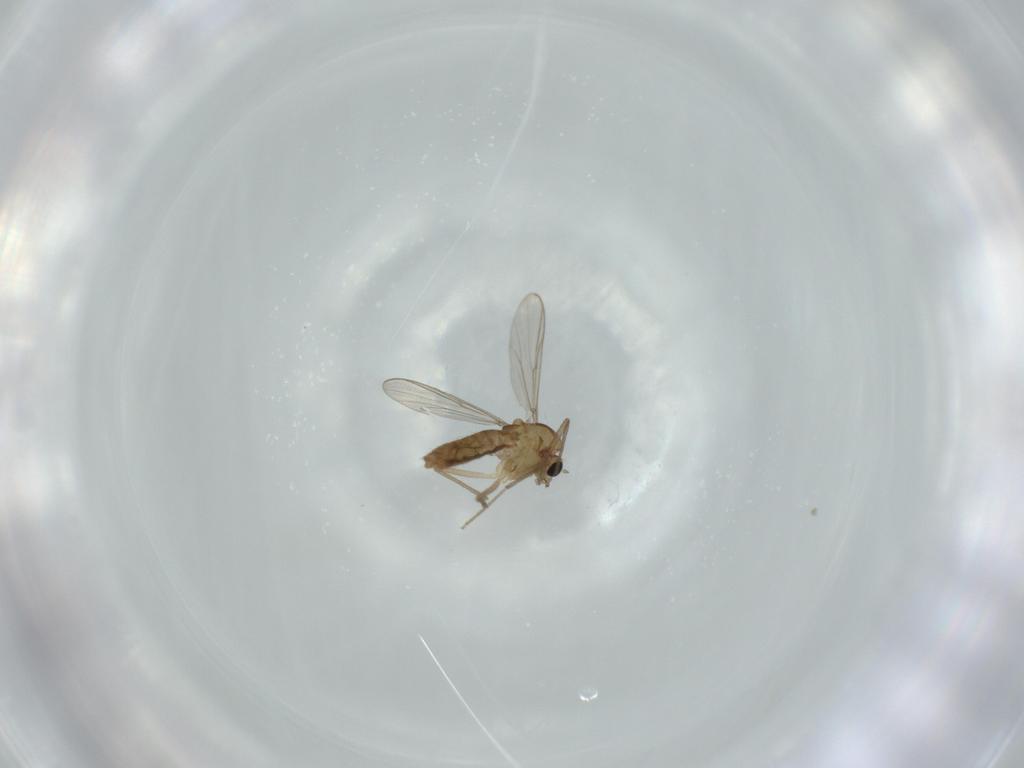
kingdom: Animalia
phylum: Arthropoda
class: Insecta
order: Diptera
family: Chironomidae
